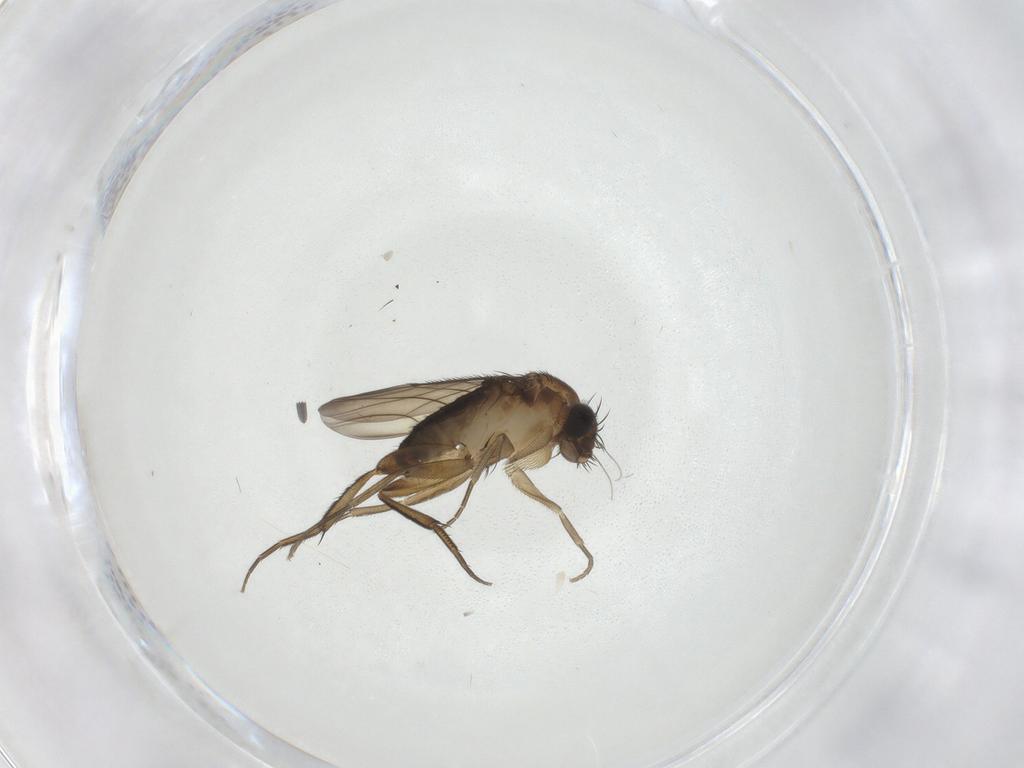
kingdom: Animalia
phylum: Arthropoda
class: Insecta
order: Diptera
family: Phoridae
